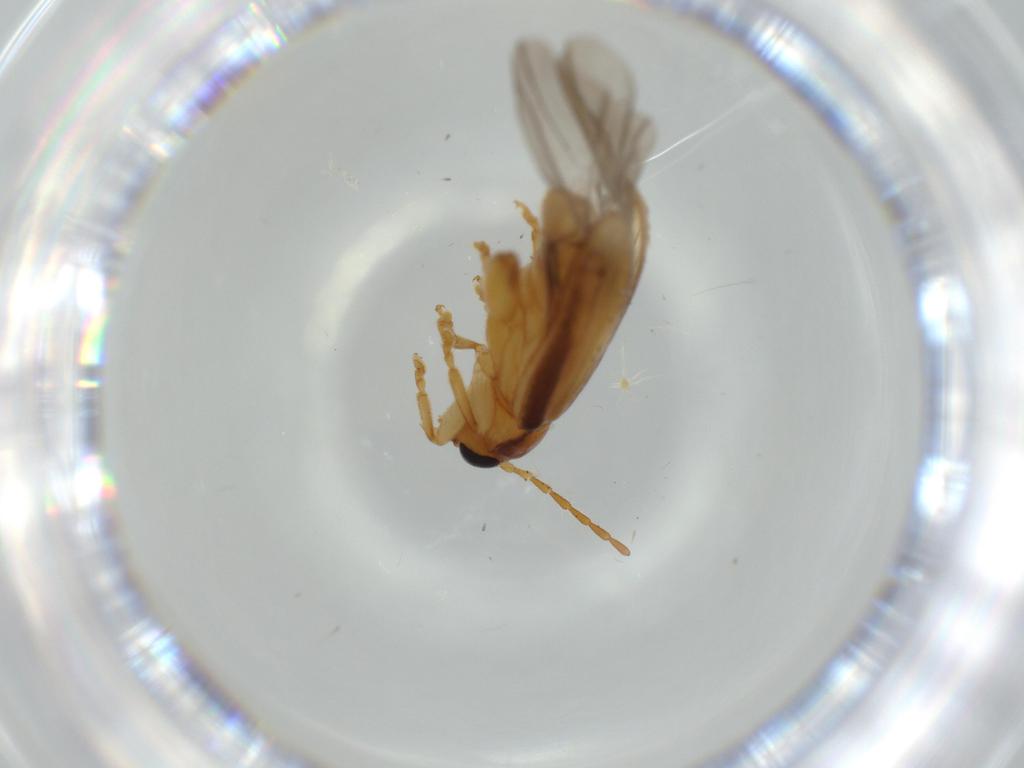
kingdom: Animalia
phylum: Arthropoda
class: Insecta
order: Coleoptera
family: Chrysomelidae
